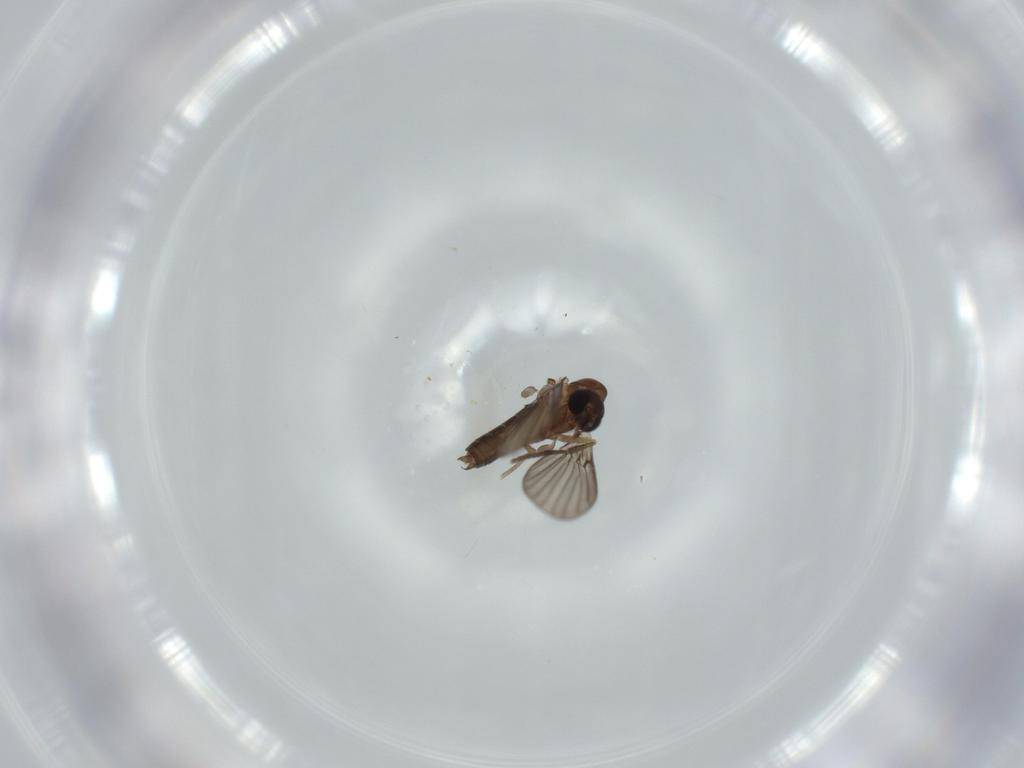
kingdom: Animalia
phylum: Arthropoda
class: Insecta
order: Diptera
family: Psychodidae
